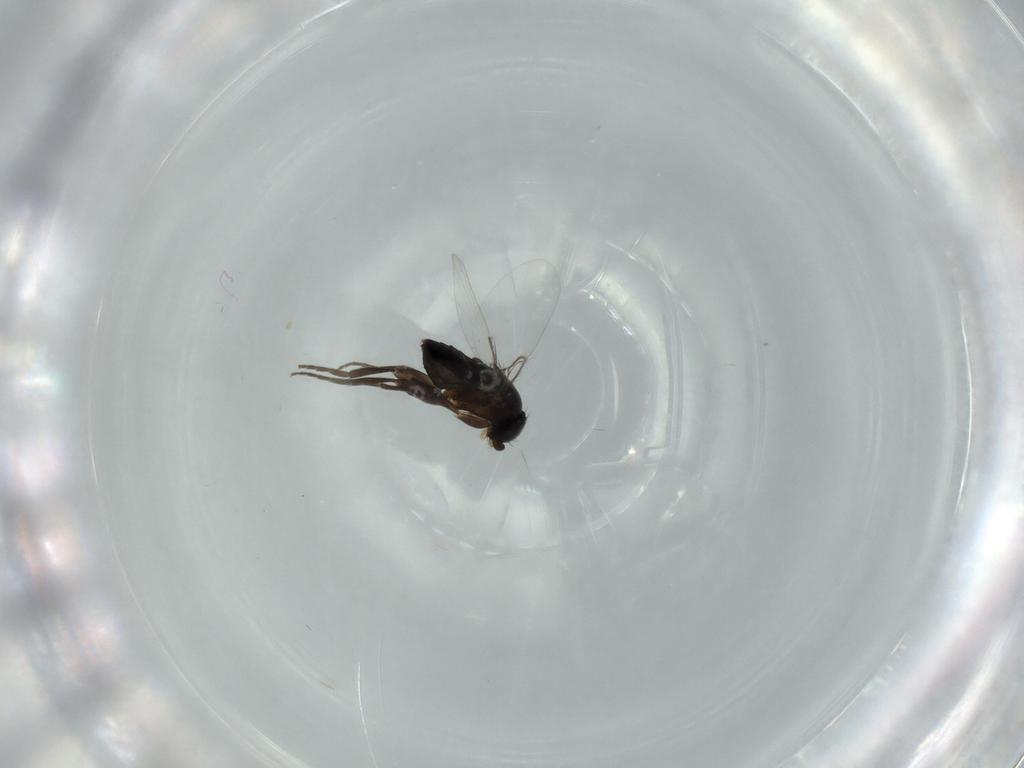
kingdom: Animalia
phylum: Arthropoda
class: Insecta
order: Diptera
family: Phoridae
